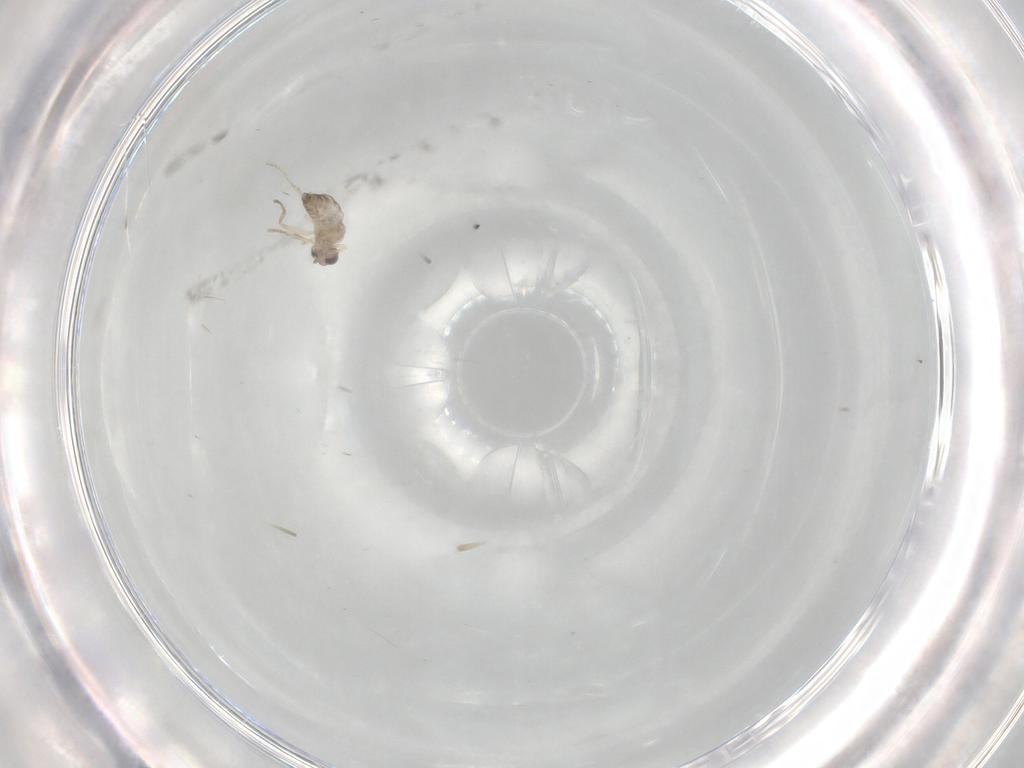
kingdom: Animalia
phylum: Arthropoda
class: Insecta
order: Diptera
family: Cecidomyiidae
